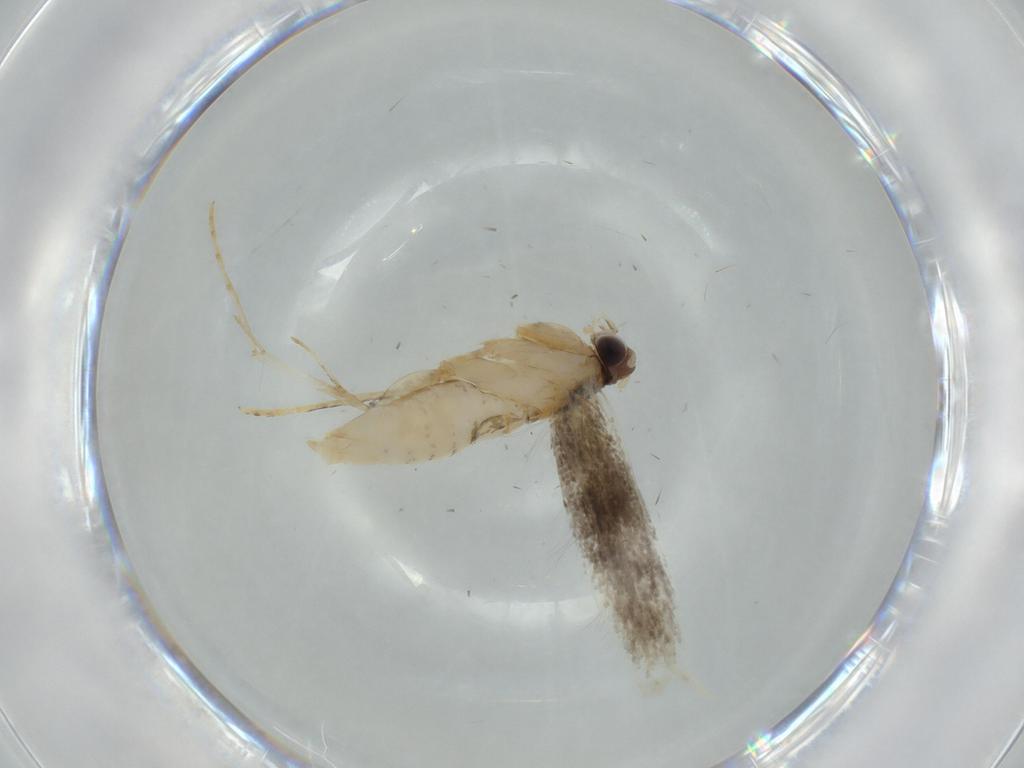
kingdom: Animalia
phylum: Arthropoda
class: Insecta
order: Lepidoptera
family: Tineidae
